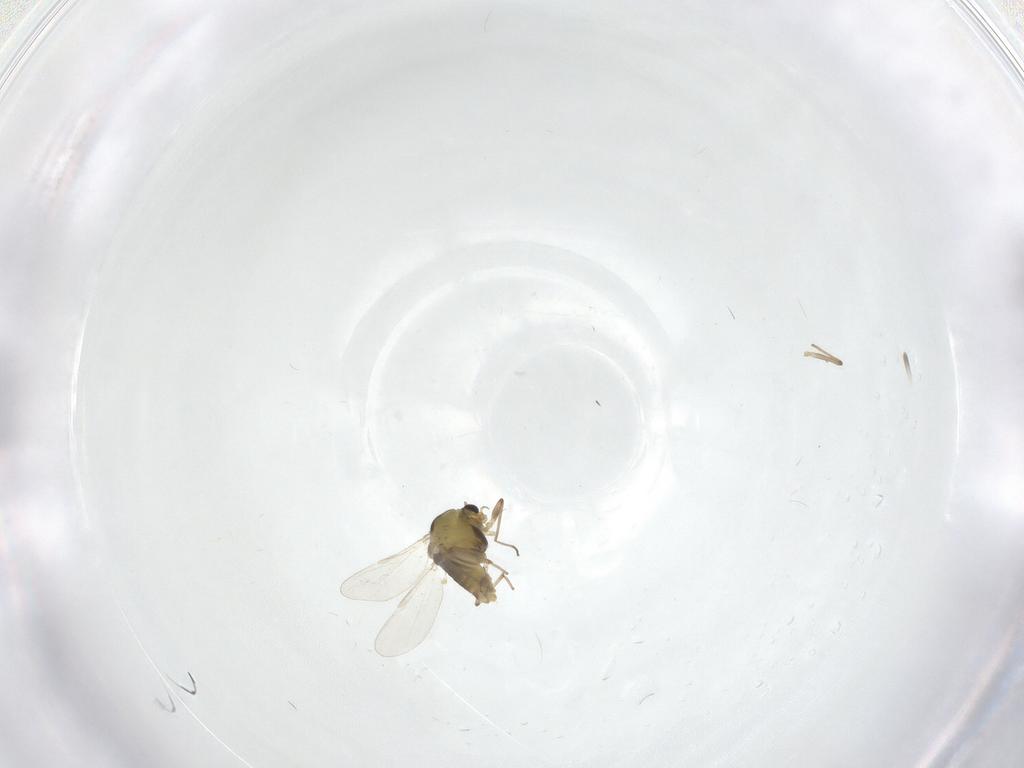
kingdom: Animalia
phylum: Arthropoda
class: Insecta
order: Diptera
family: Chironomidae
